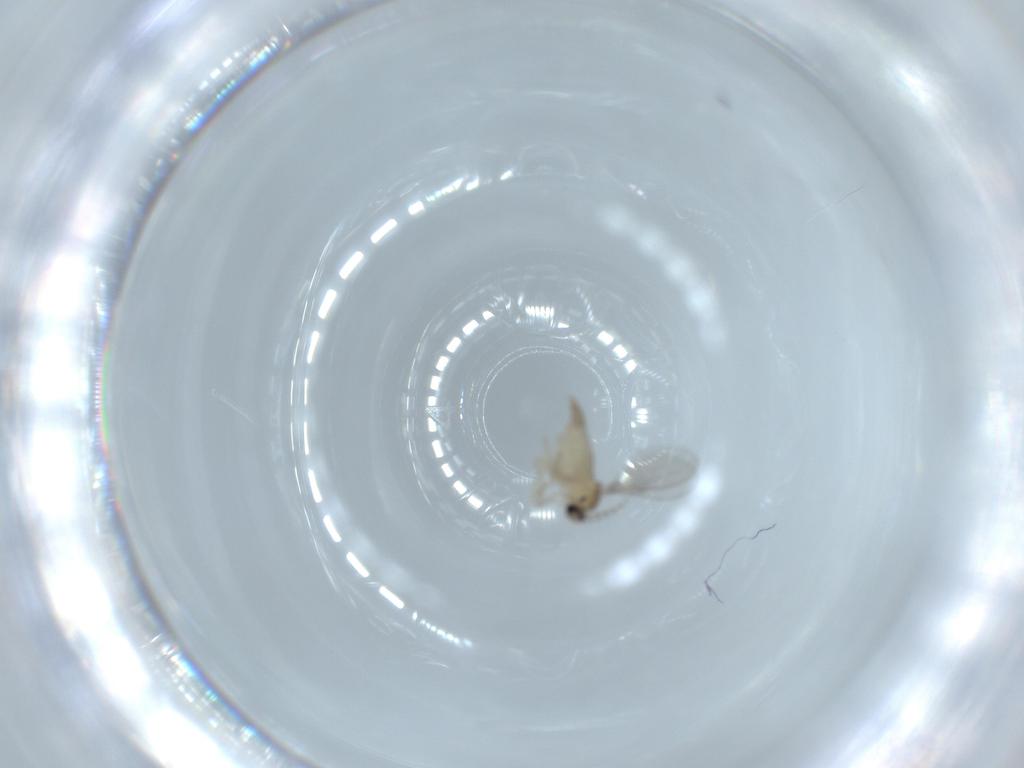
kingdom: Animalia
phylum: Arthropoda
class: Insecta
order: Diptera
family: Cecidomyiidae
